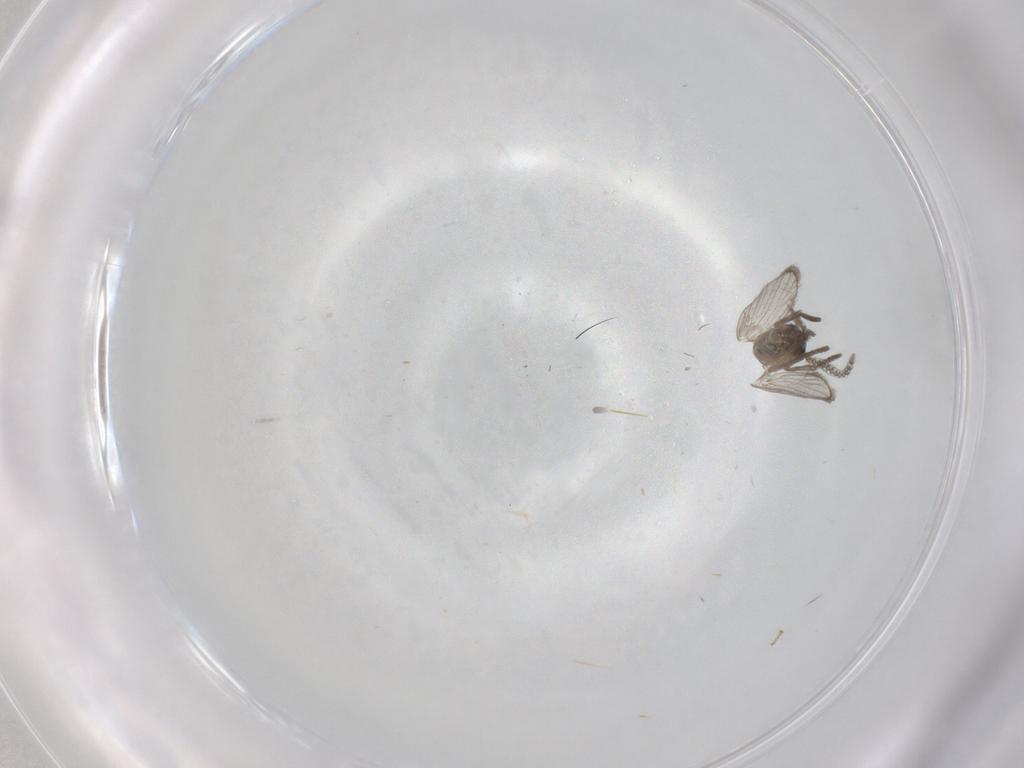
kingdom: Animalia
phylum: Arthropoda
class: Insecta
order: Diptera
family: Psychodidae
